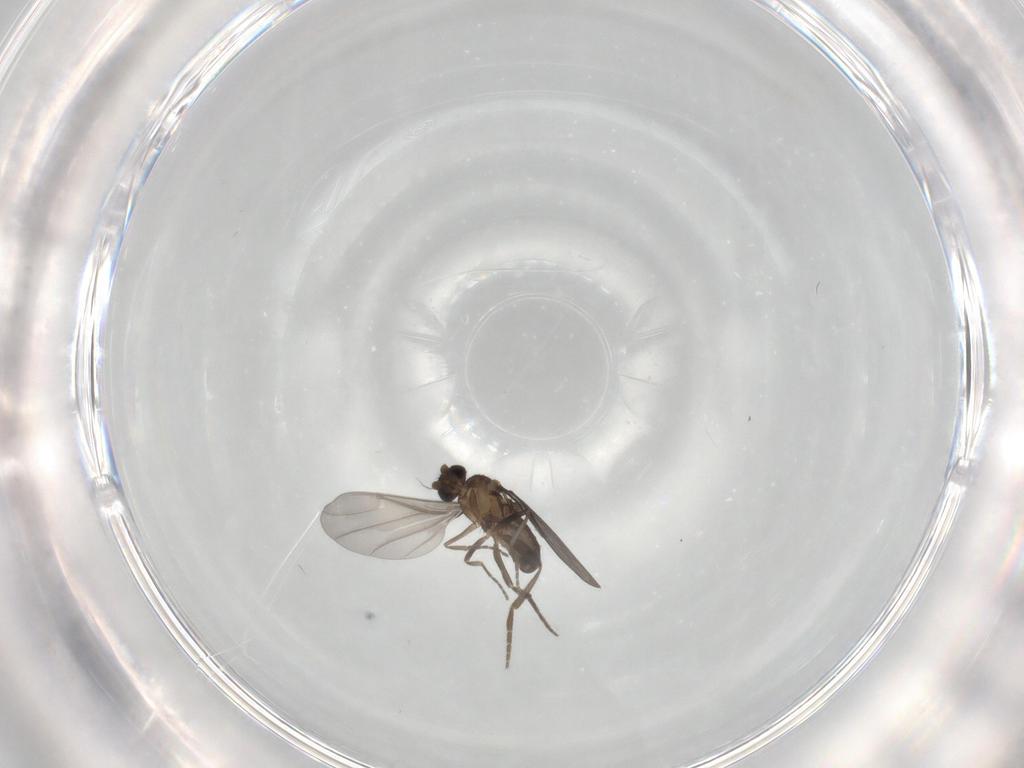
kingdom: Animalia
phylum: Arthropoda
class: Insecta
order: Diptera
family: Phoridae
